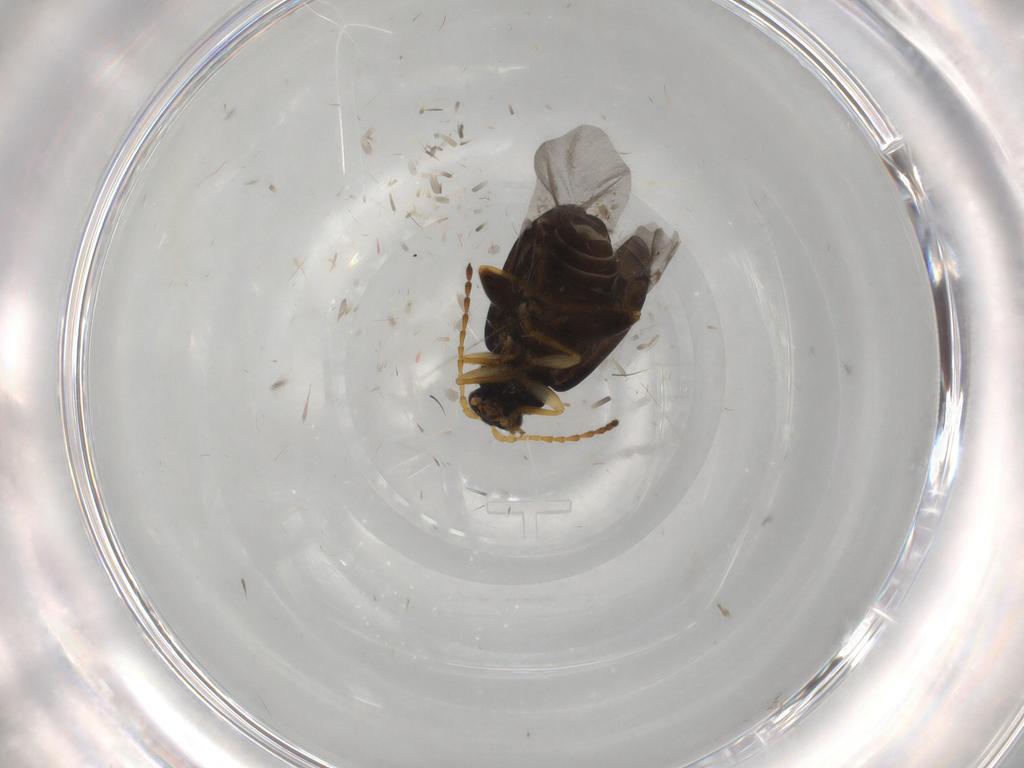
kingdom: Animalia
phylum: Arthropoda
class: Insecta
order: Coleoptera
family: Chrysomelidae
